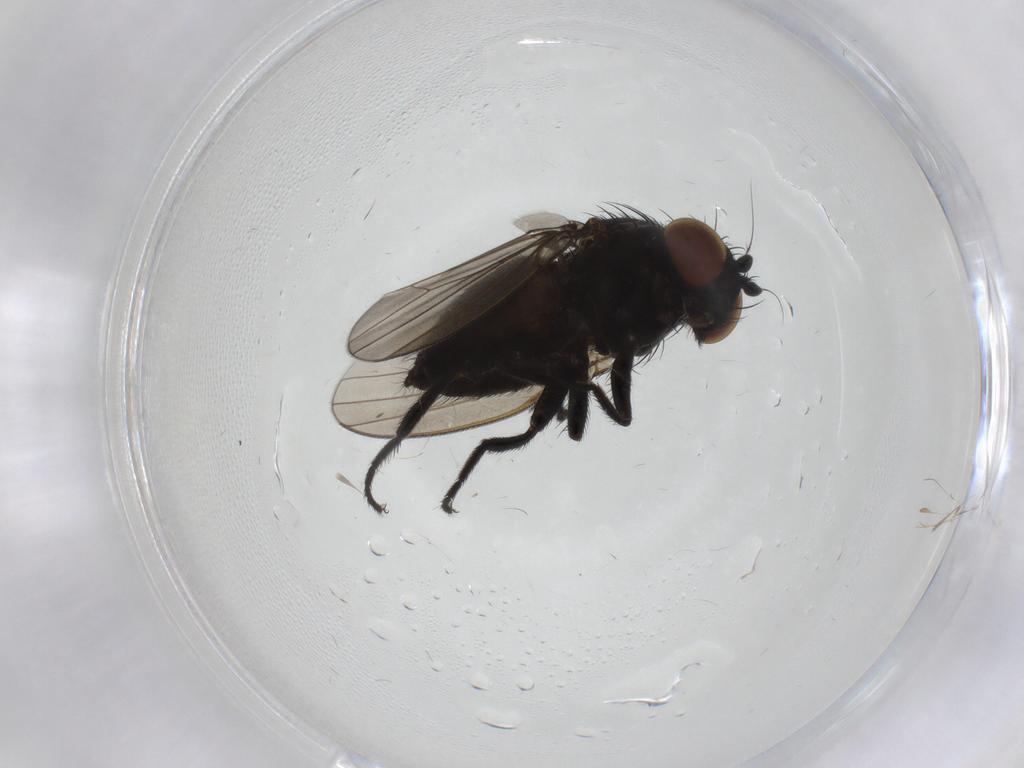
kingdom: Animalia
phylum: Arthropoda
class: Insecta
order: Diptera
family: Milichiidae
